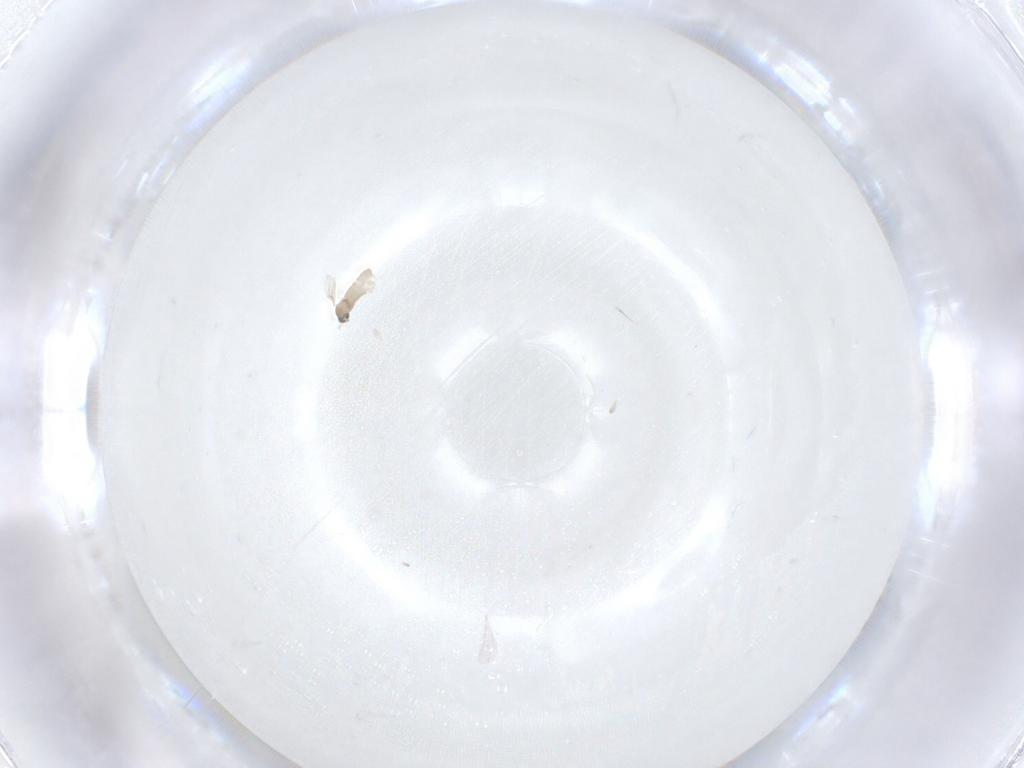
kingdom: Animalia
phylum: Arthropoda
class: Insecta
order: Diptera
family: Cecidomyiidae
